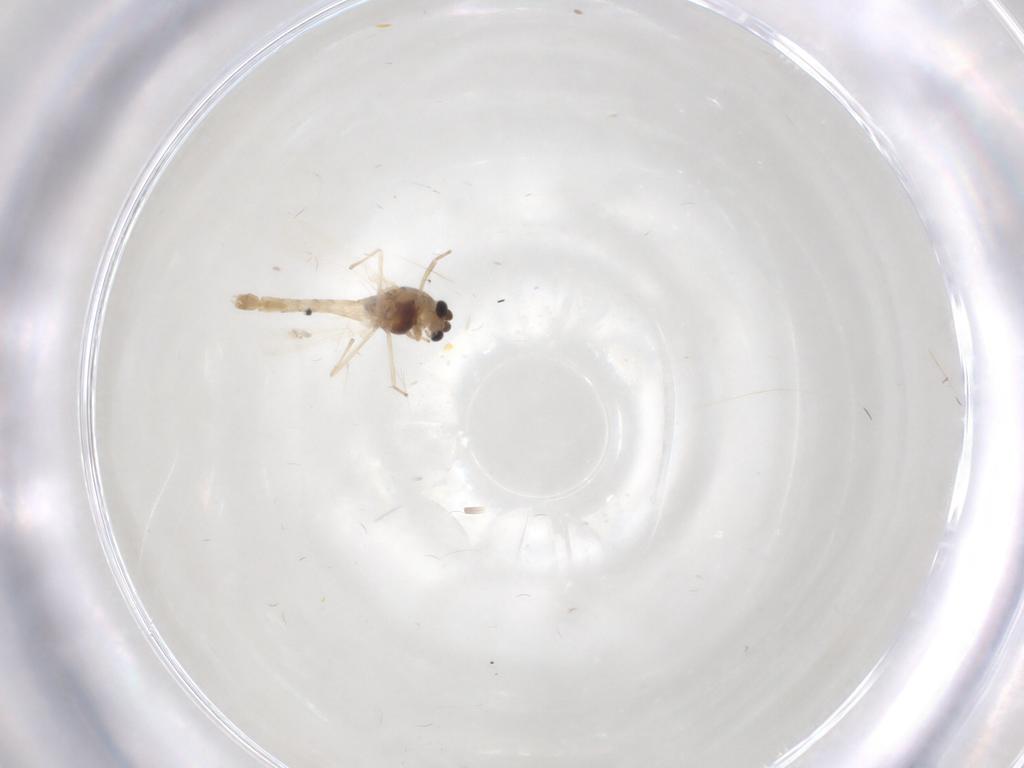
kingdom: Animalia
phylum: Arthropoda
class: Insecta
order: Diptera
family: Chironomidae
